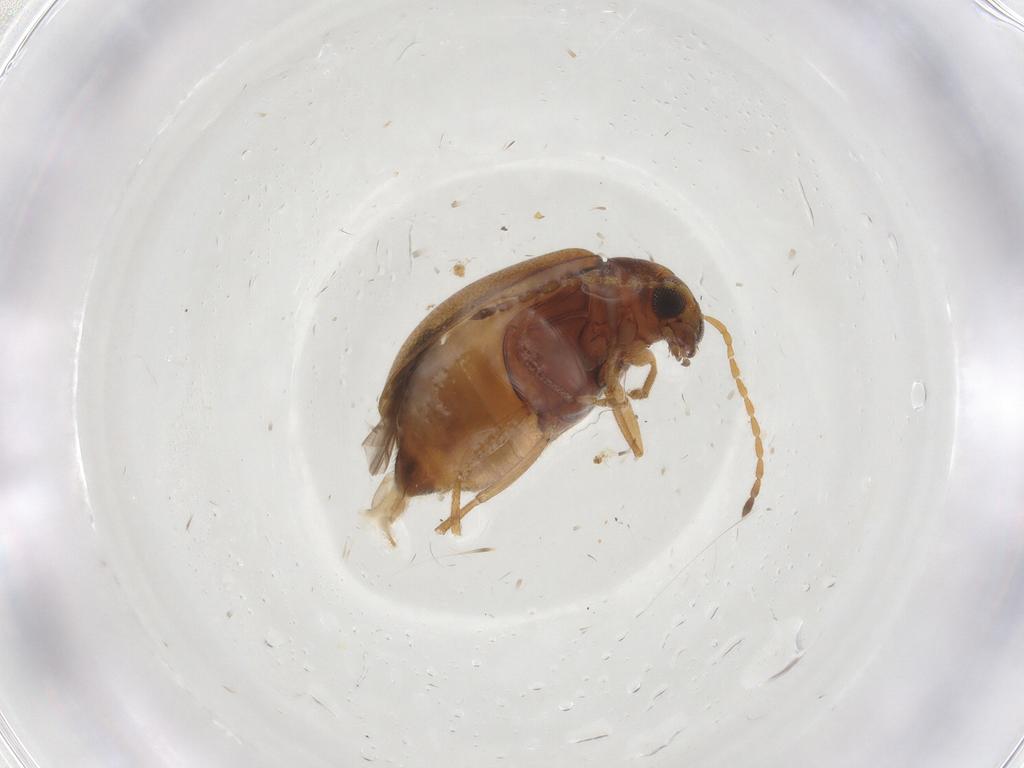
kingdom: Animalia
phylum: Arthropoda
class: Insecta
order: Coleoptera
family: Chrysomelidae
